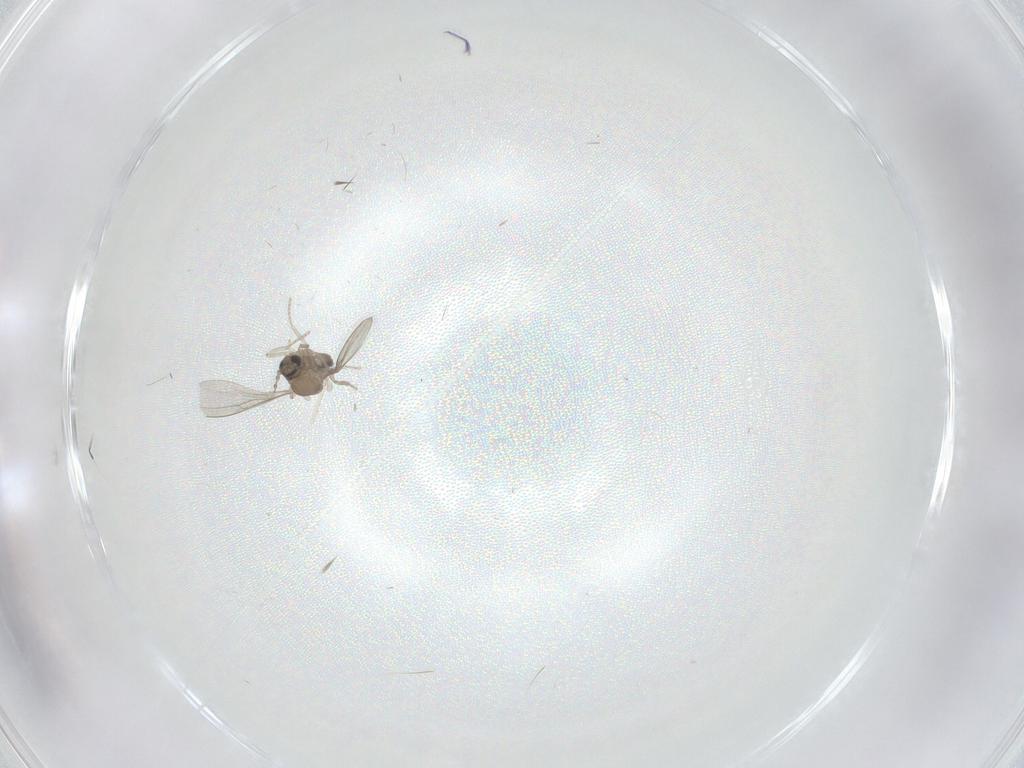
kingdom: Animalia
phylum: Arthropoda
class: Insecta
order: Diptera
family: Cecidomyiidae
